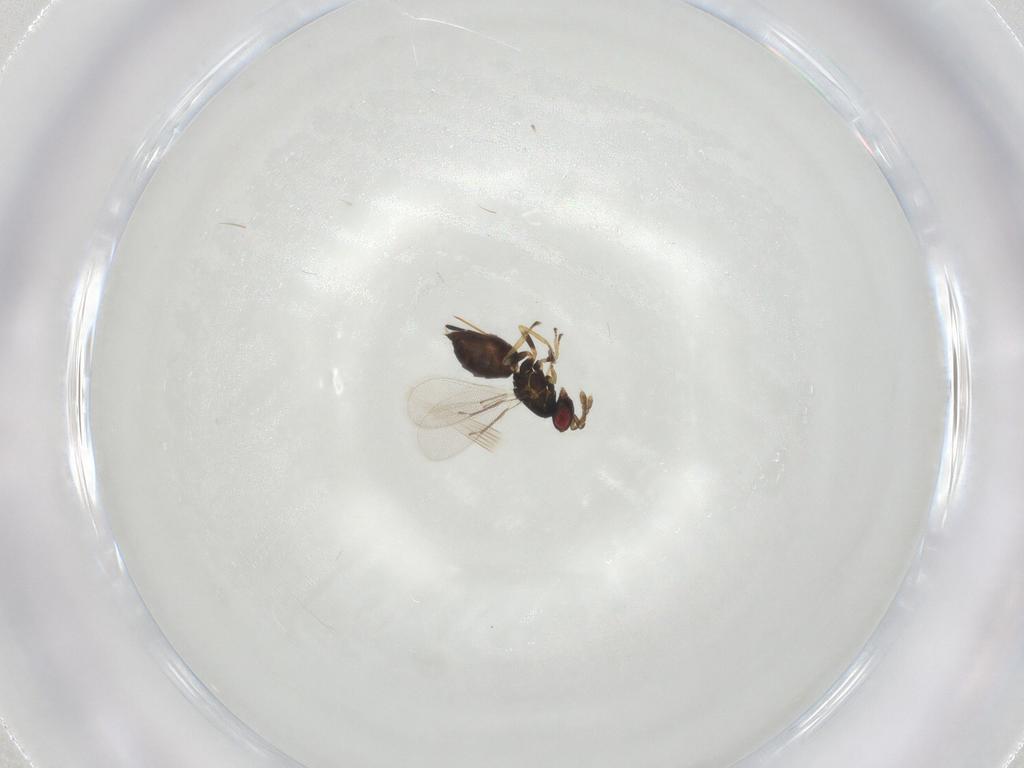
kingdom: Animalia
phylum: Arthropoda
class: Insecta
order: Hymenoptera
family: Eulophidae
